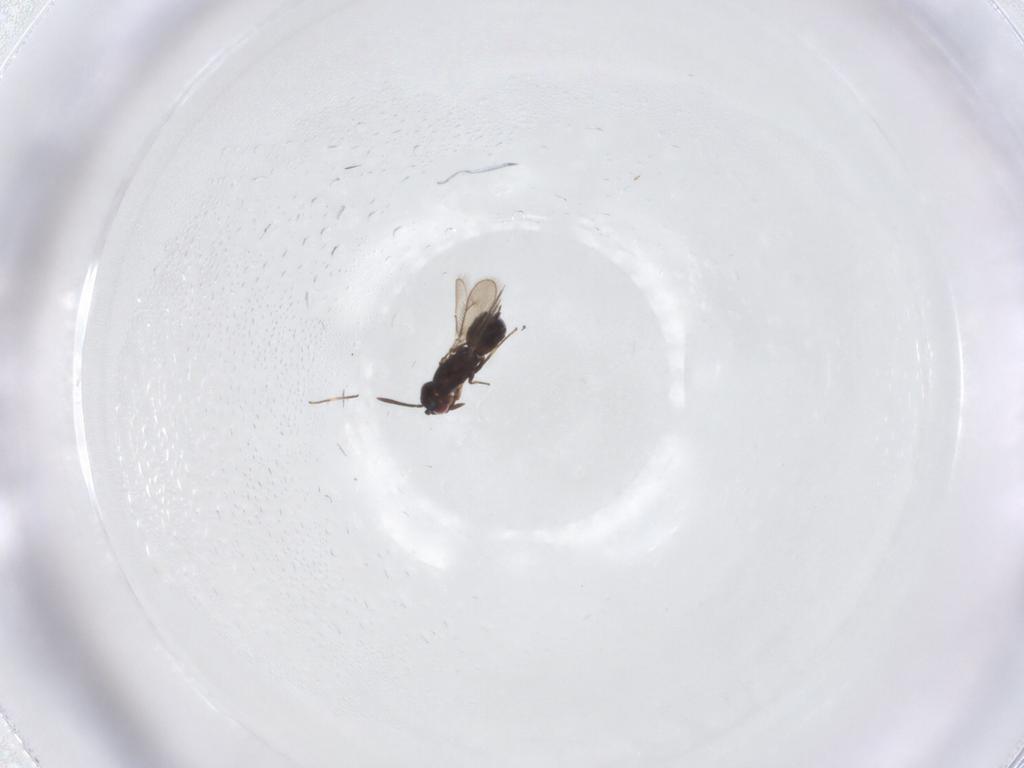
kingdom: Animalia
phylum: Arthropoda
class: Insecta
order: Hymenoptera
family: Pteromalidae
